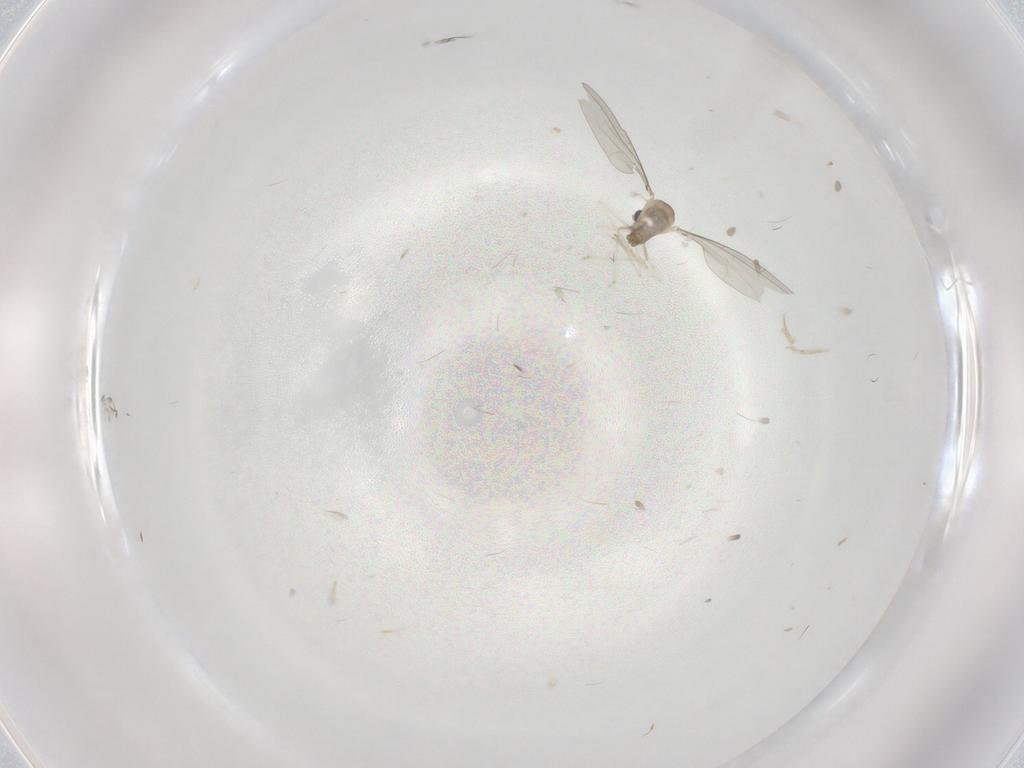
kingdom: Animalia
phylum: Arthropoda
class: Insecta
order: Diptera
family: Cecidomyiidae
